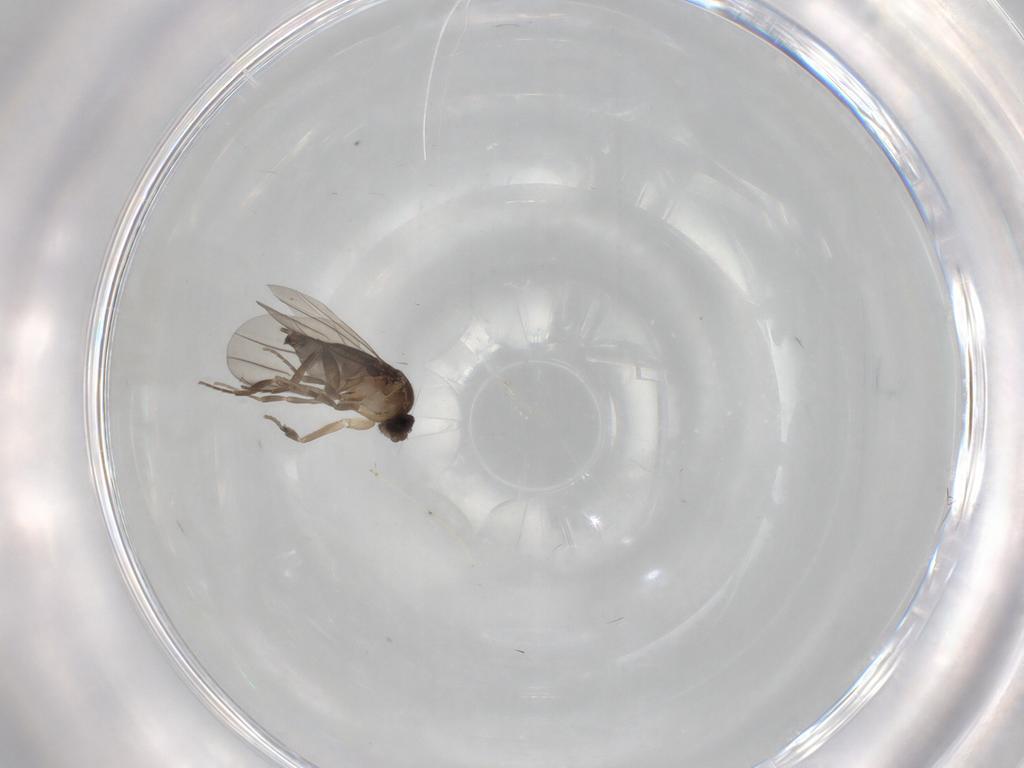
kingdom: Animalia
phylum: Arthropoda
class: Insecta
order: Diptera
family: Phoridae
